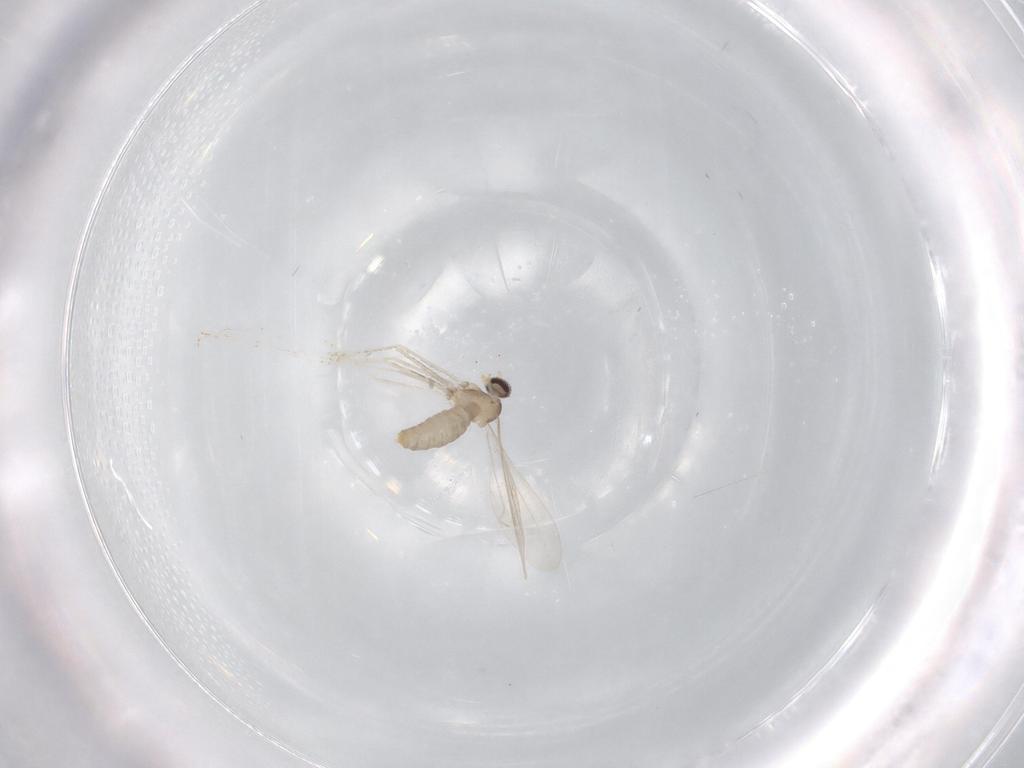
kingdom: Animalia
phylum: Arthropoda
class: Insecta
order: Diptera
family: Cecidomyiidae
